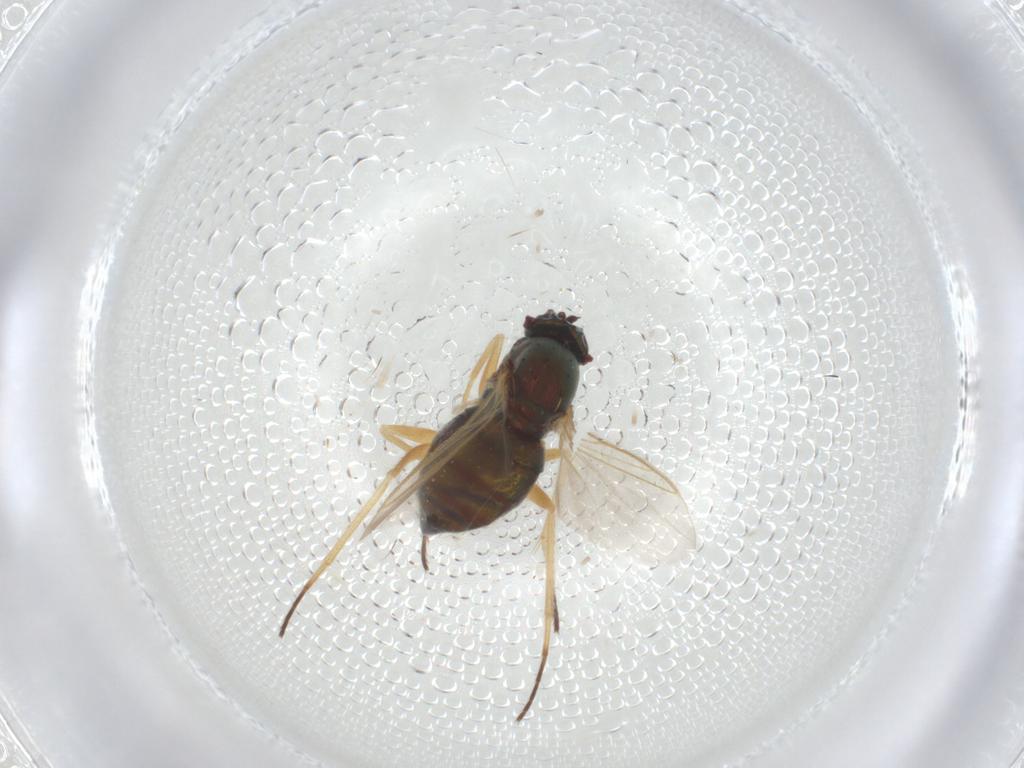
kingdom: Animalia
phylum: Arthropoda
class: Insecta
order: Diptera
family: Dolichopodidae
